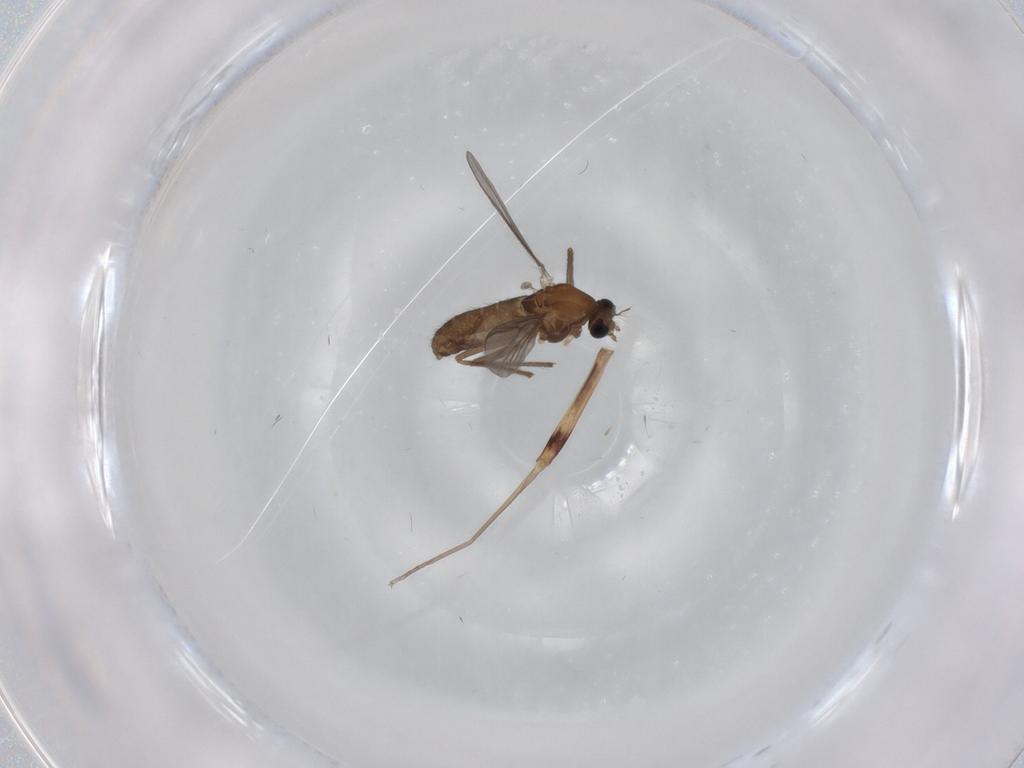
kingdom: Animalia
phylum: Arthropoda
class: Insecta
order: Diptera
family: Chironomidae
